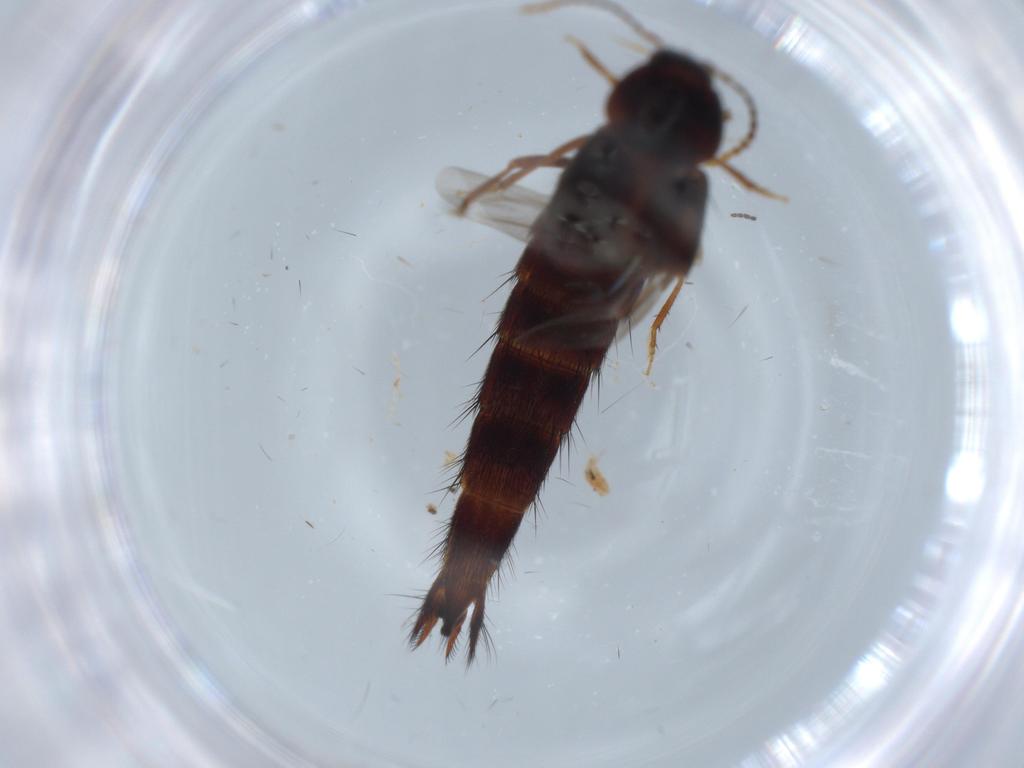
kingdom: Animalia
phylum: Arthropoda
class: Insecta
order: Coleoptera
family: Staphylinidae
